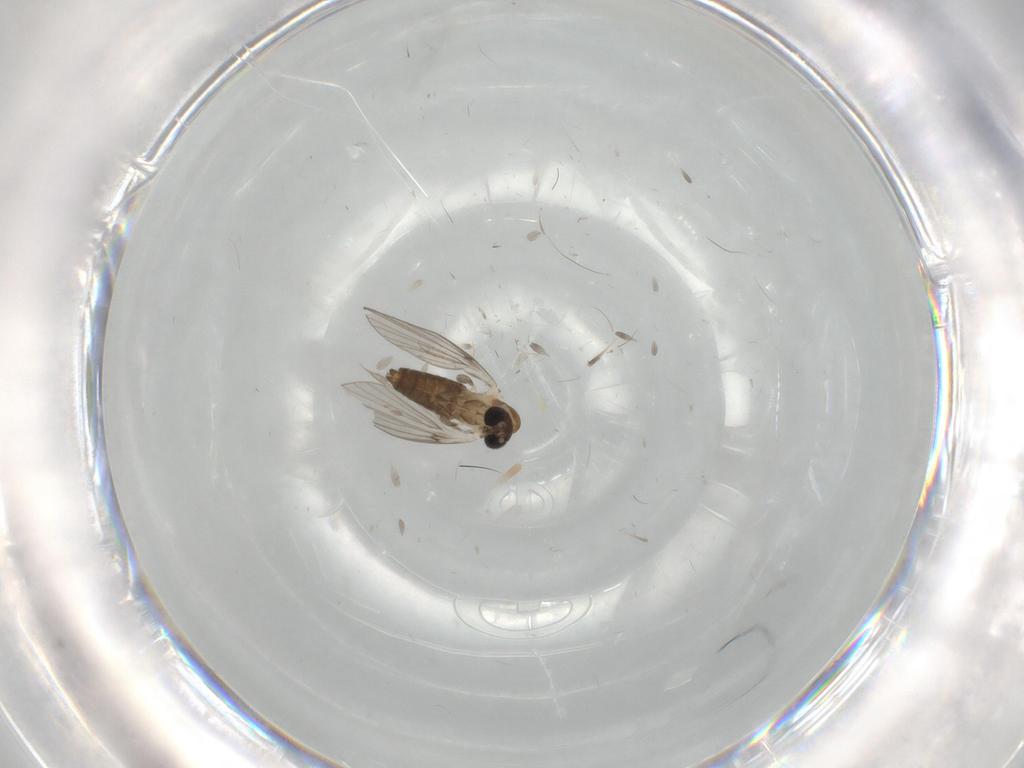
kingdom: Animalia
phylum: Arthropoda
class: Insecta
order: Diptera
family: Psychodidae
